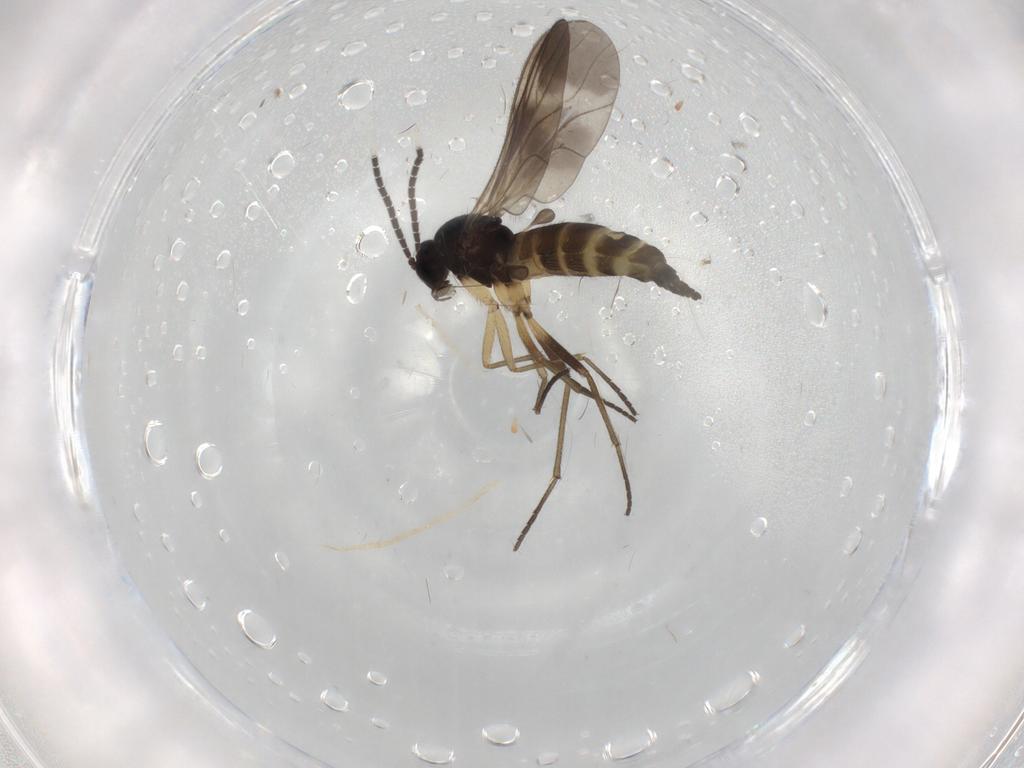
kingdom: Animalia
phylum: Arthropoda
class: Insecta
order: Diptera
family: Sciaridae
